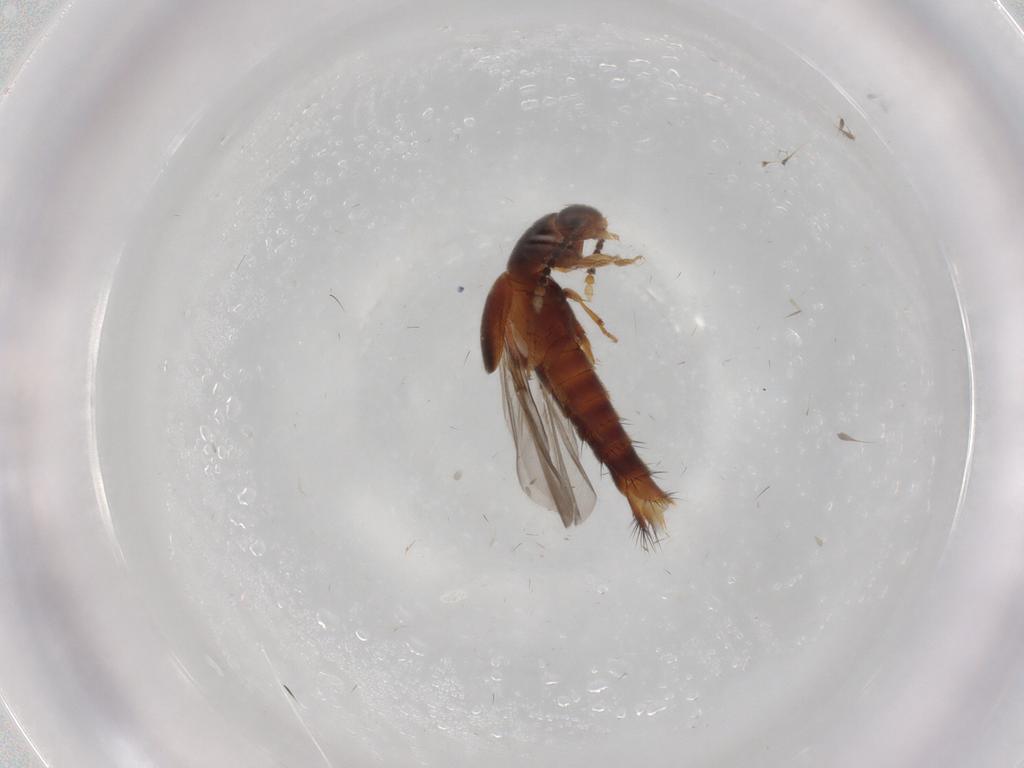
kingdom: Animalia
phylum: Arthropoda
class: Insecta
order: Coleoptera
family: Staphylinidae
